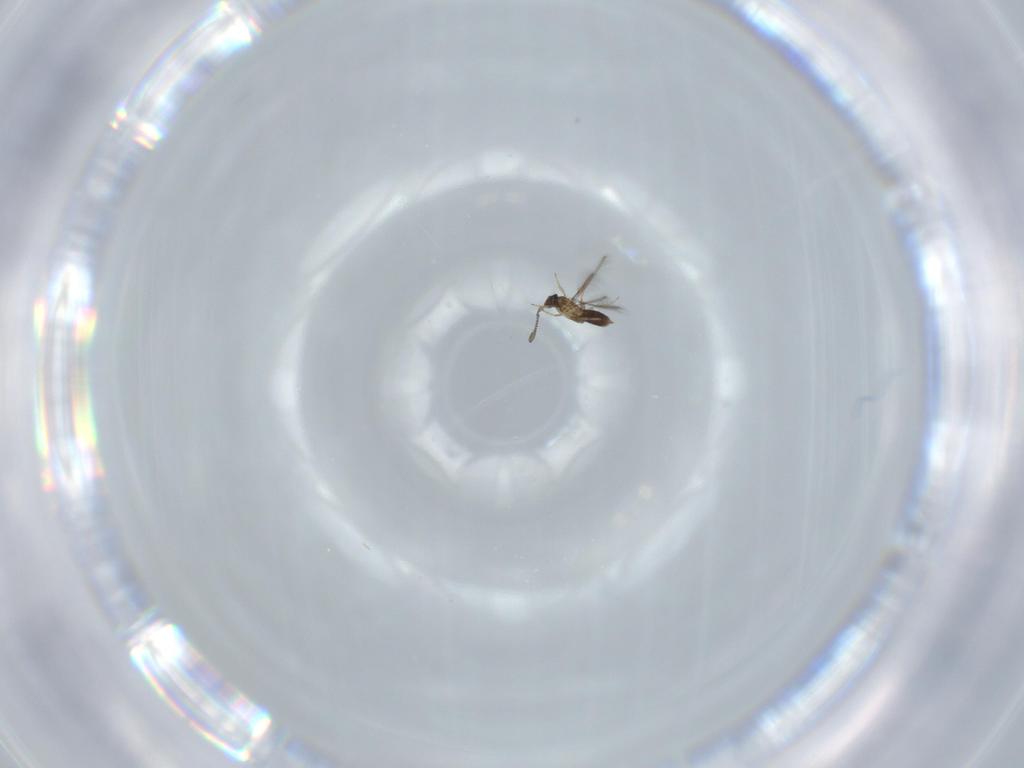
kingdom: Animalia
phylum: Arthropoda
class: Insecta
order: Hymenoptera
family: Mymaridae
